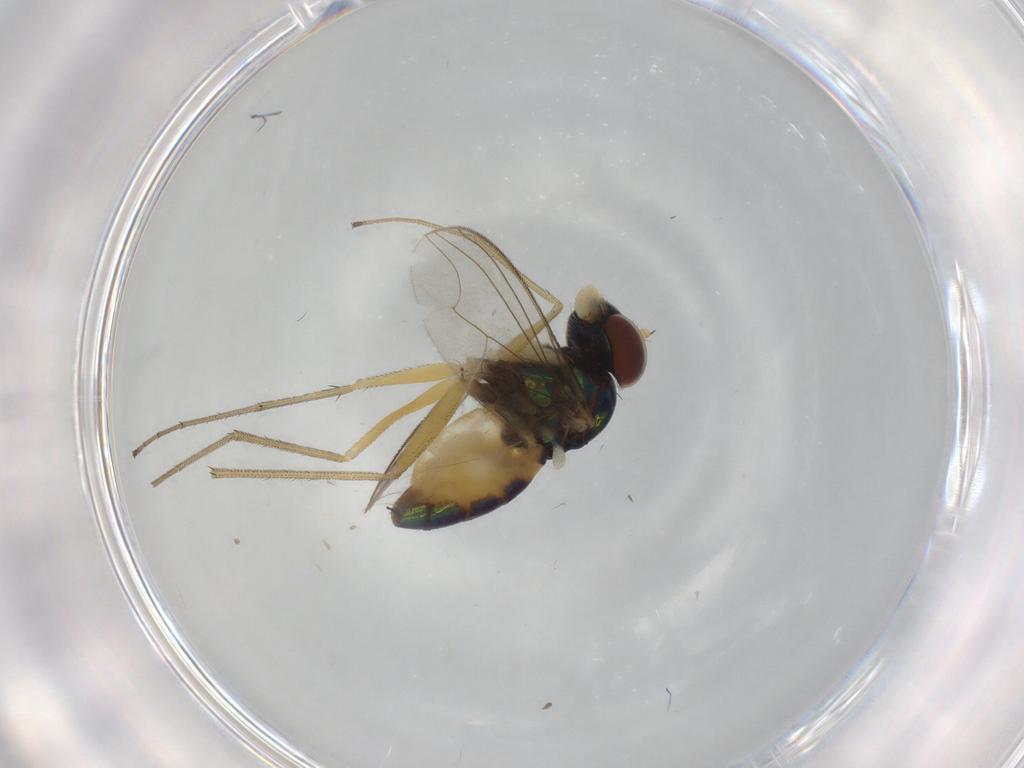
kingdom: Animalia
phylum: Arthropoda
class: Insecta
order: Diptera
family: Dolichopodidae
